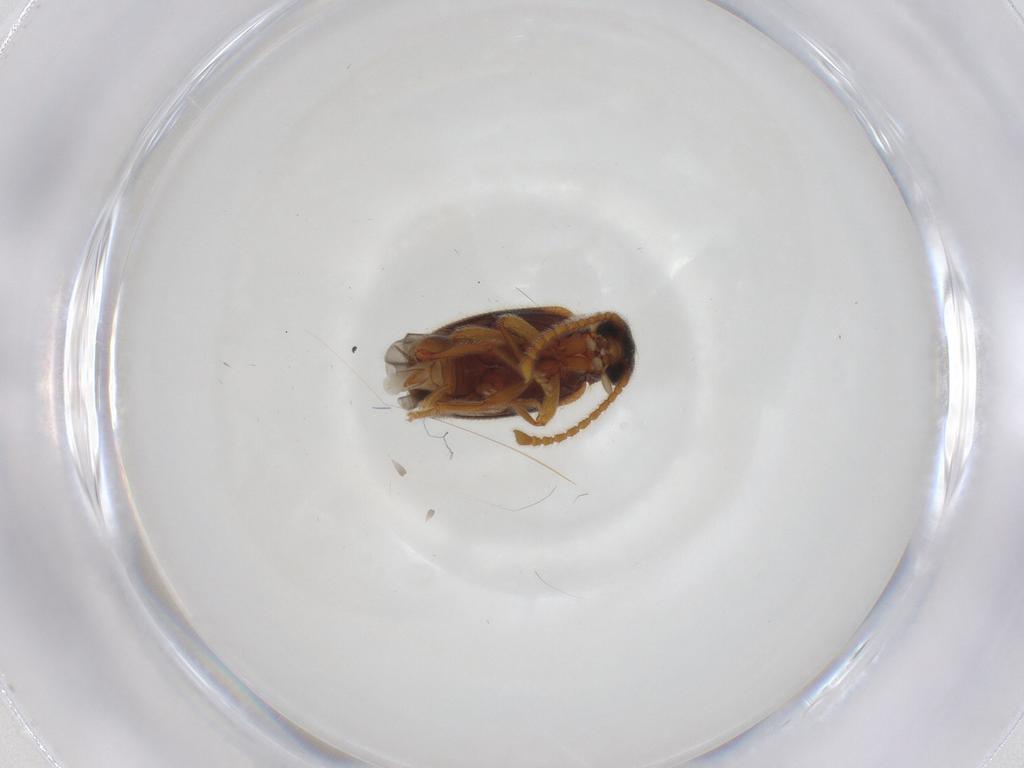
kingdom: Animalia
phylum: Arthropoda
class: Insecta
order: Coleoptera
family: Aderidae
